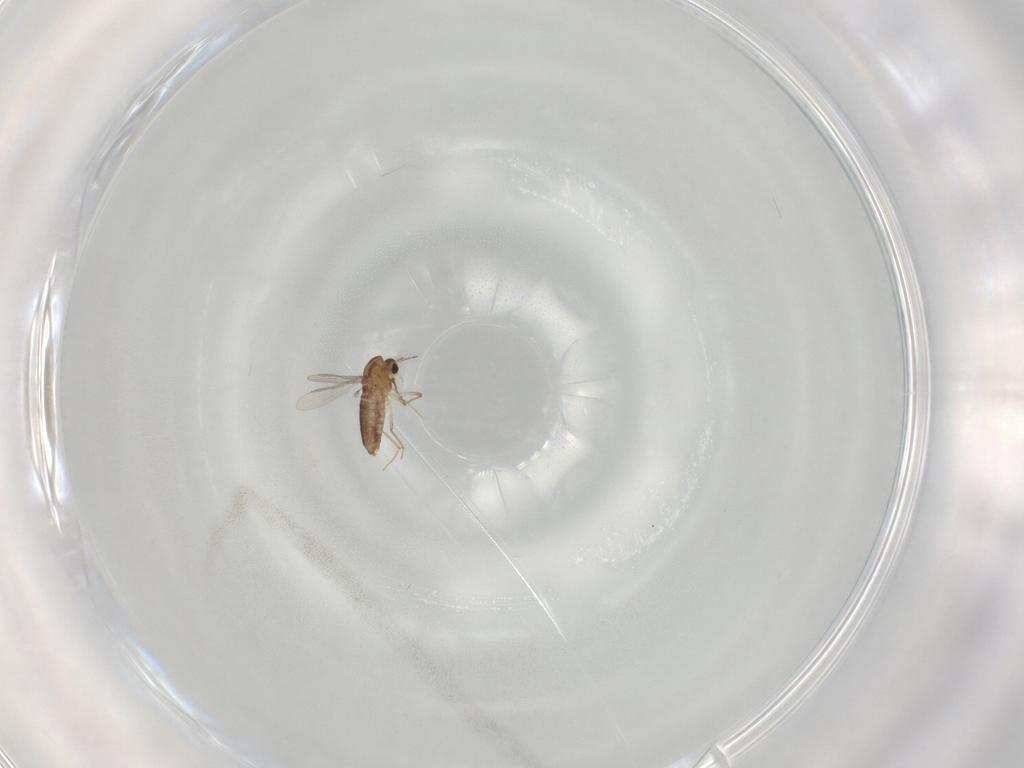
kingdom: Animalia
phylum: Arthropoda
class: Insecta
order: Diptera
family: Chironomidae
